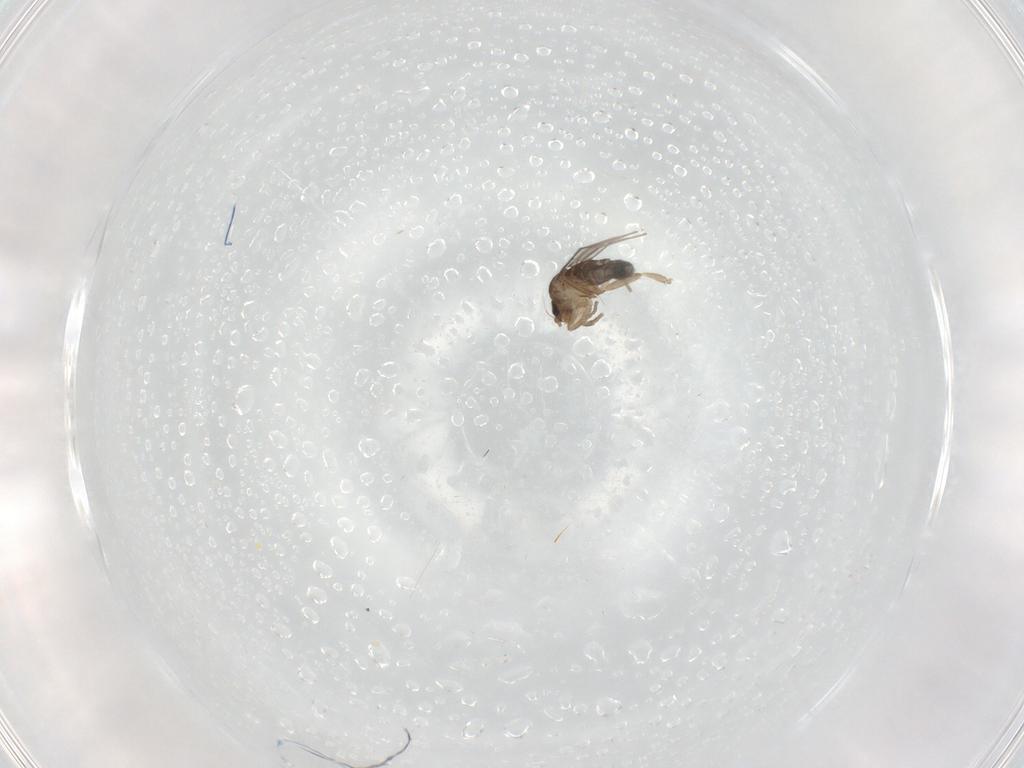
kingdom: Animalia
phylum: Arthropoda
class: Insecta
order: Diptera
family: Phoridae
